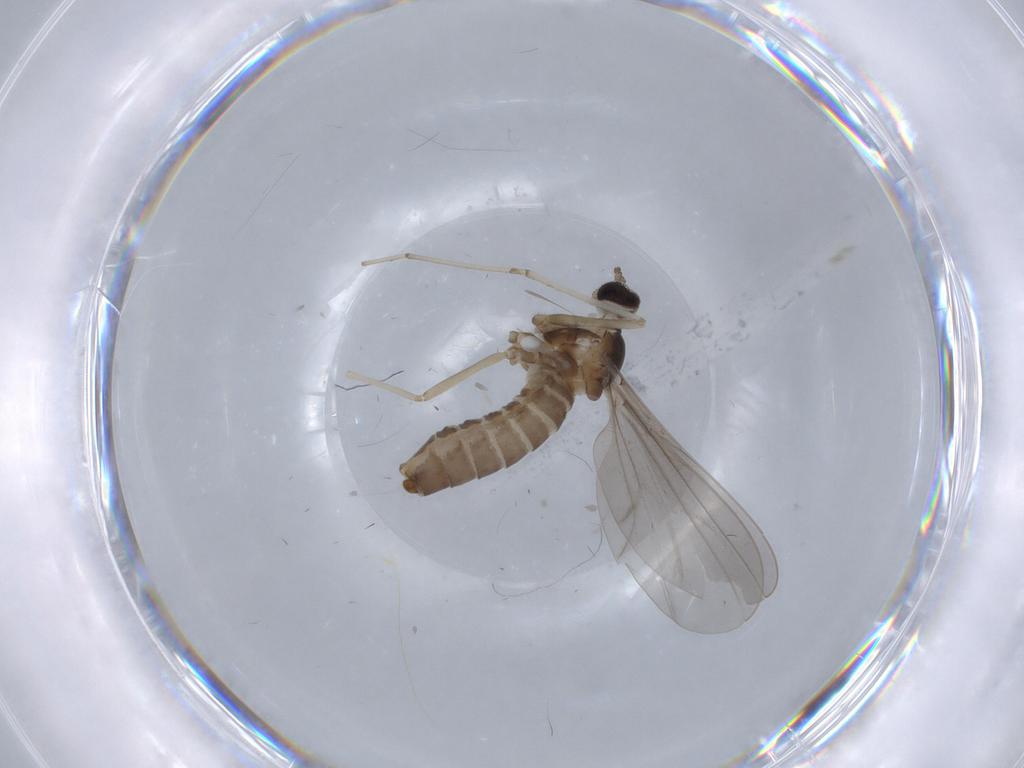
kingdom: Animalia
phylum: Arthropoda
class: Insecta
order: Diptera
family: Cecidomyiidae
